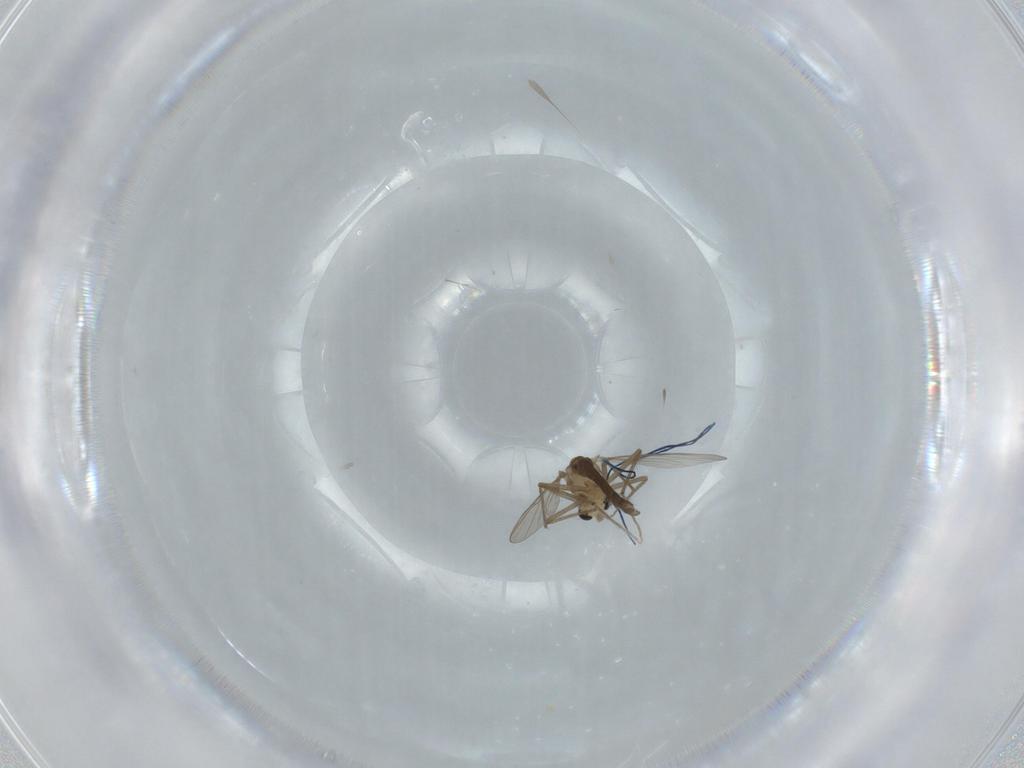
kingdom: Animalia
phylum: Arthropoda
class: Insecta
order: Diptera
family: Chironomidae
